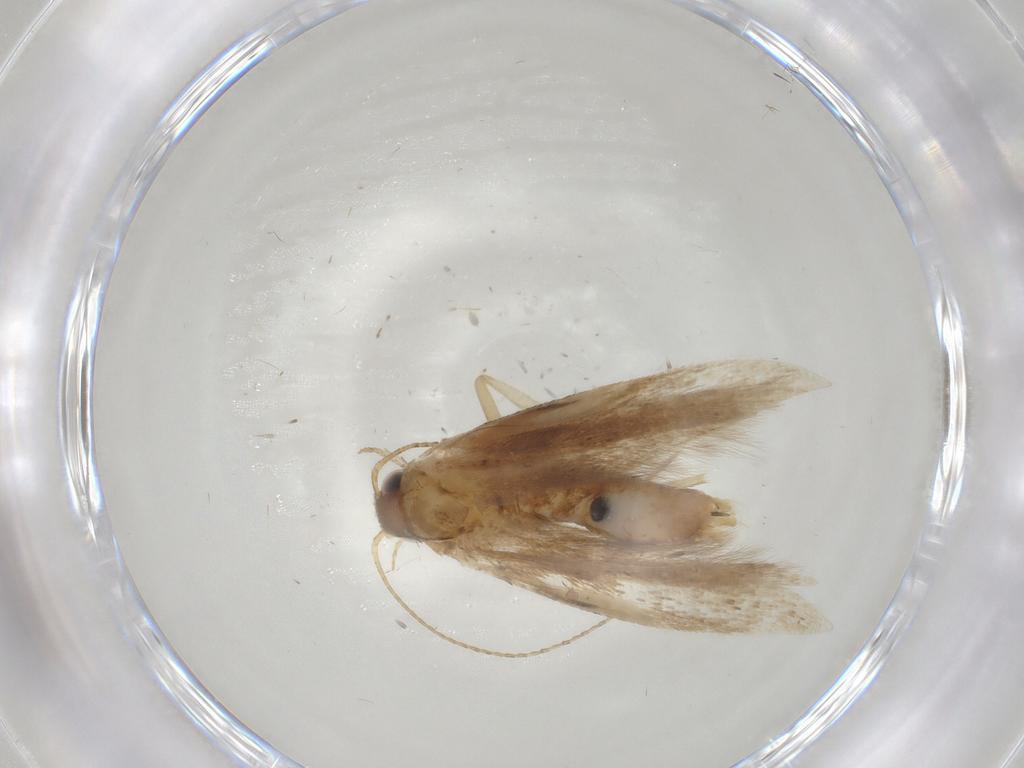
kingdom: Animalia
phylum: Arthropoda
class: Insecta
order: Lepidoptera
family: Gelechiidae
